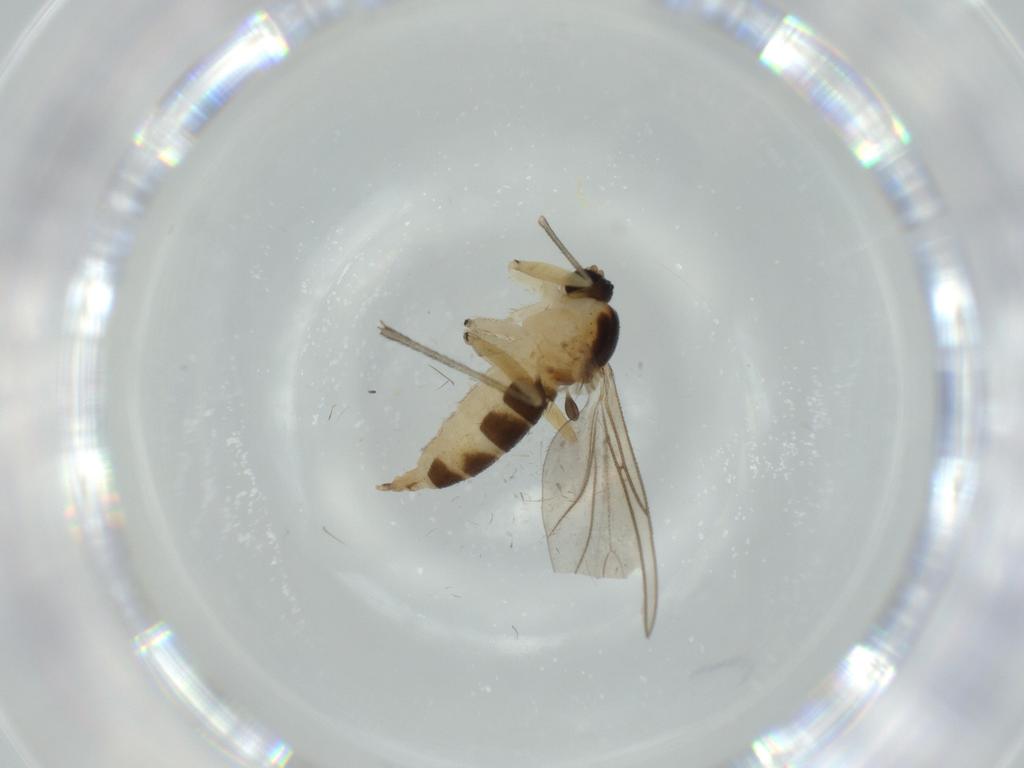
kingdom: Animalia
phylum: Arthropoda
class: Insecta
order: Diptera
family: Sciaridae
